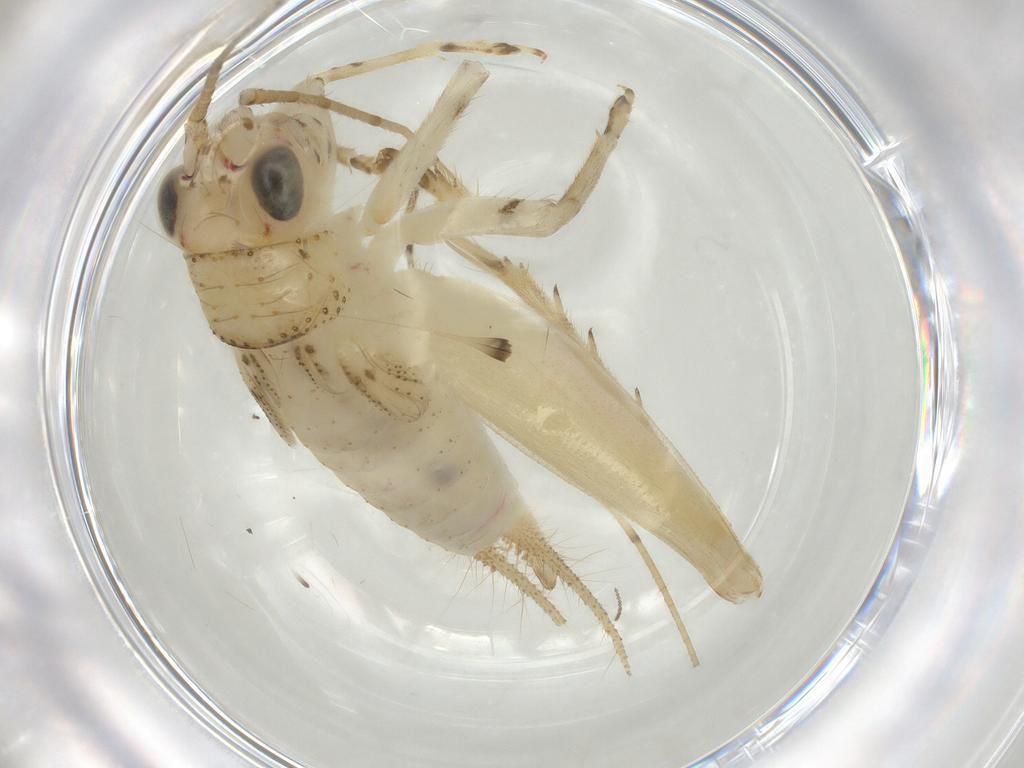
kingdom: Animalia
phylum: Arthropoda
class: Insecta
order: Orthoptera
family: Trigonidiidae
